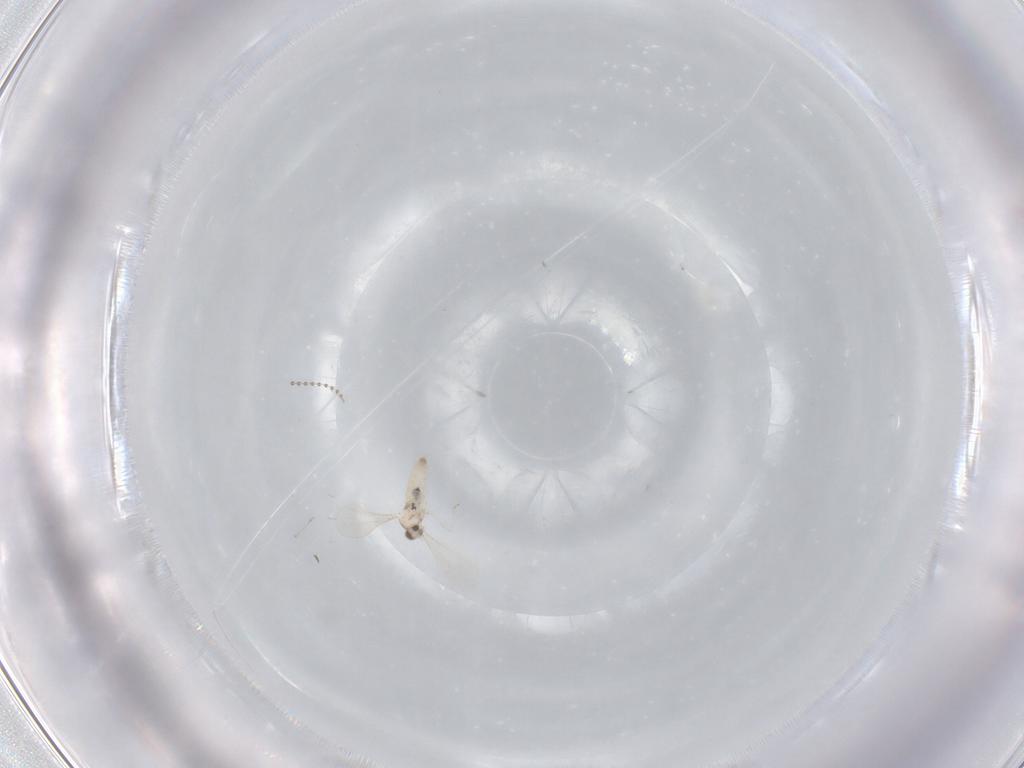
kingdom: Animalia
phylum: Arthropoda
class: Insecta
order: Diptera
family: Cecidomyiidae
